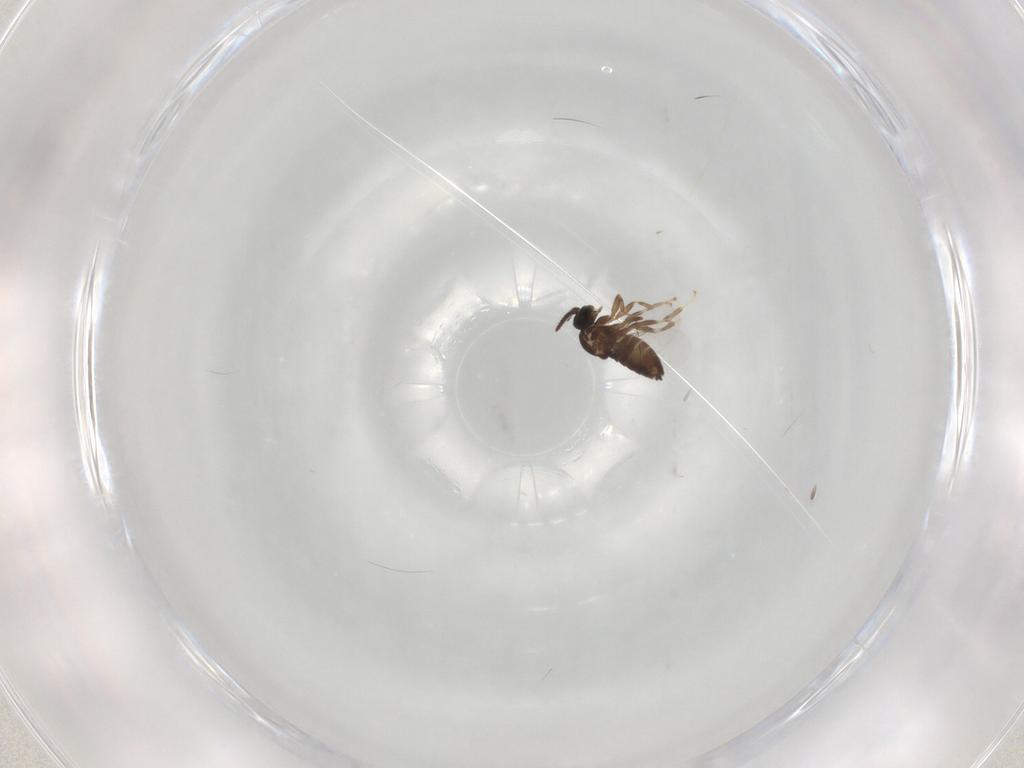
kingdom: Animalia
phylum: Arthropoda
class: Insecta
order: Diptera
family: Scatopsidae
